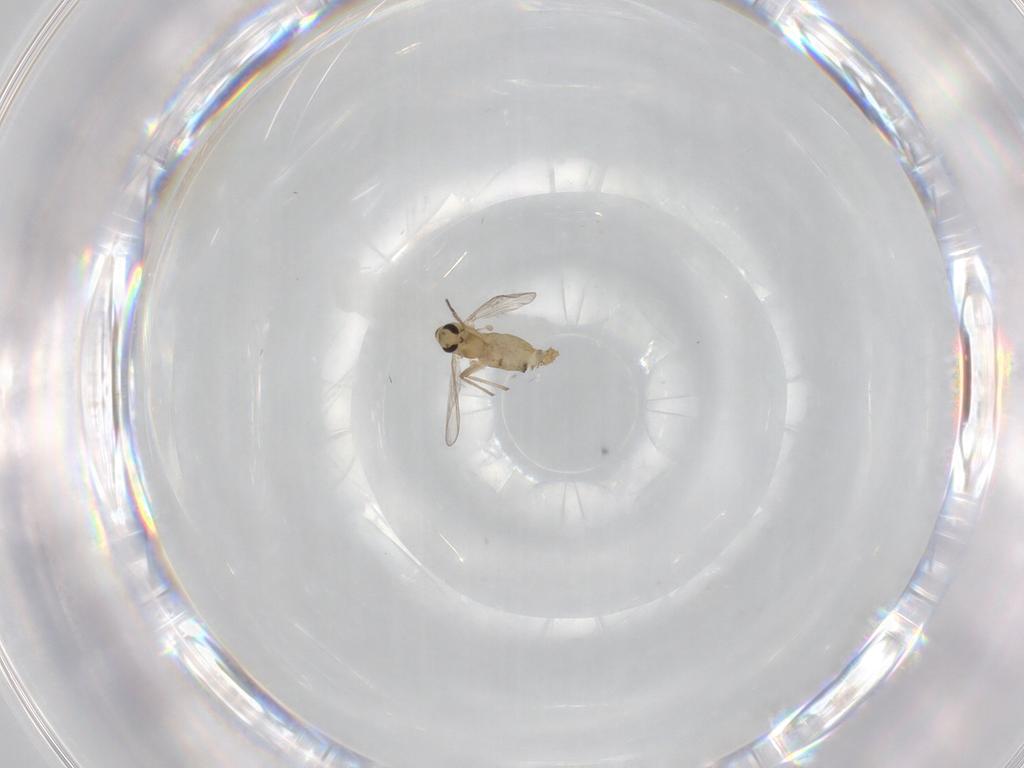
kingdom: Animalia
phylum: Arthropoda
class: Insecta
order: Diptera
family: Chironomidae
